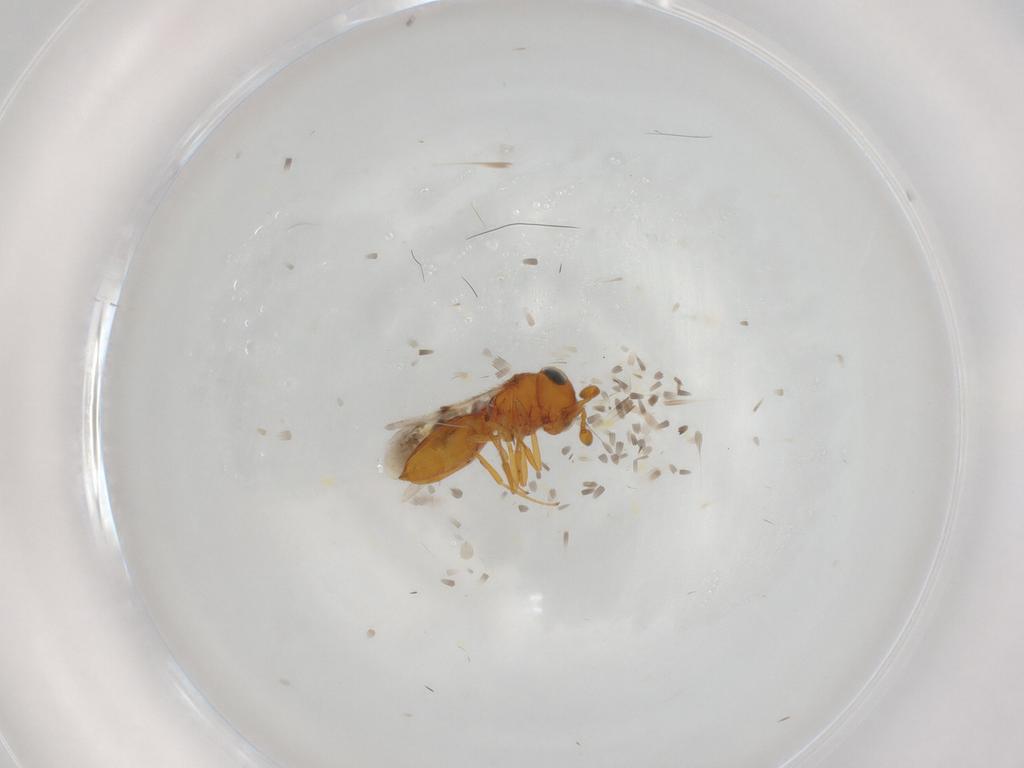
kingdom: Animalia
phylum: Arthropoda
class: Insecta
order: Hymenoptera
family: Scelionidae
